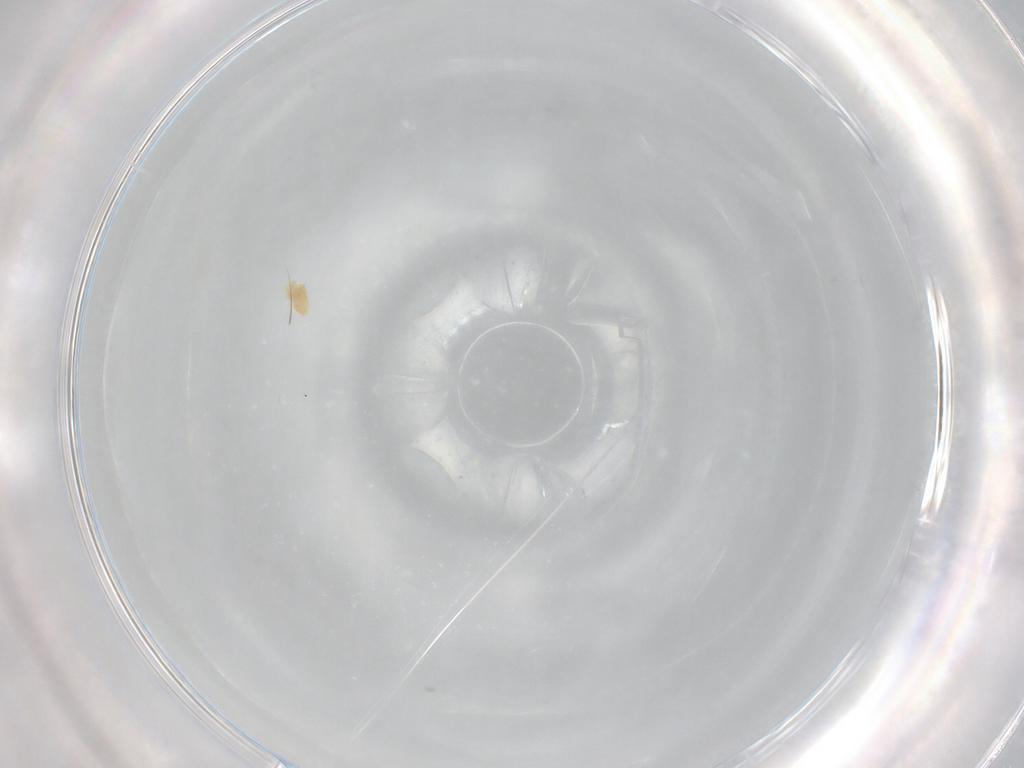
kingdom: Animalia
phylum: Arthropoda
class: Arachnida
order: Trombidiformes
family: Eupodidae
